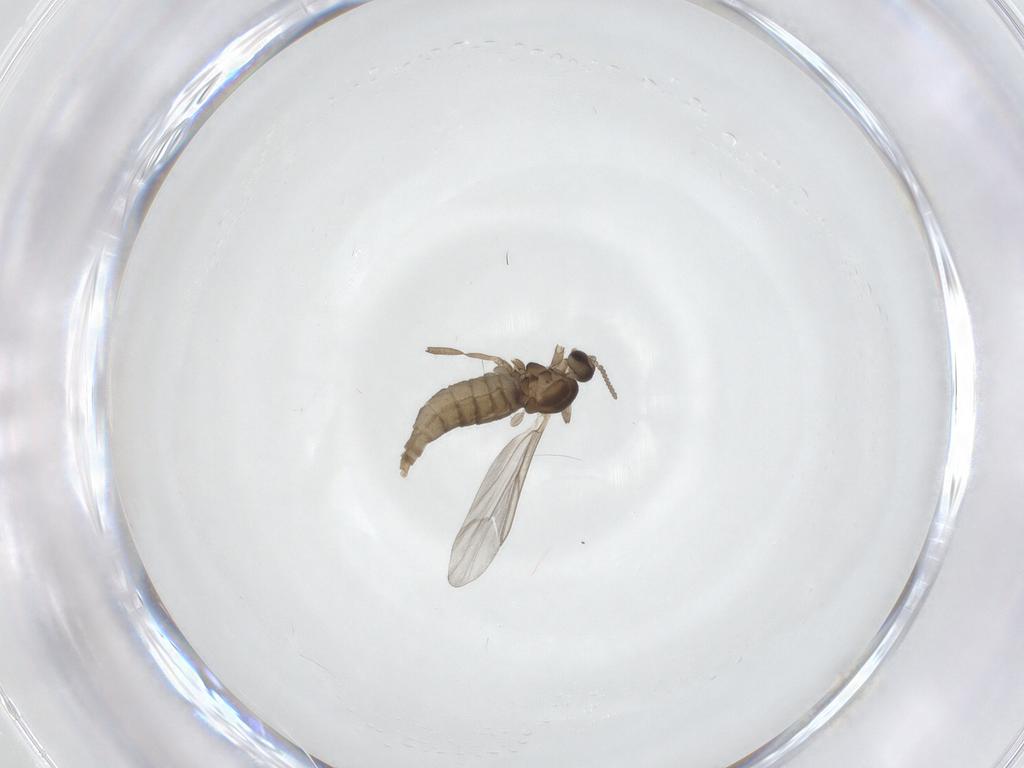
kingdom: Animalia
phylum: Arthropoda
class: Insecta
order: Diptera
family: Cecidomyiidae
